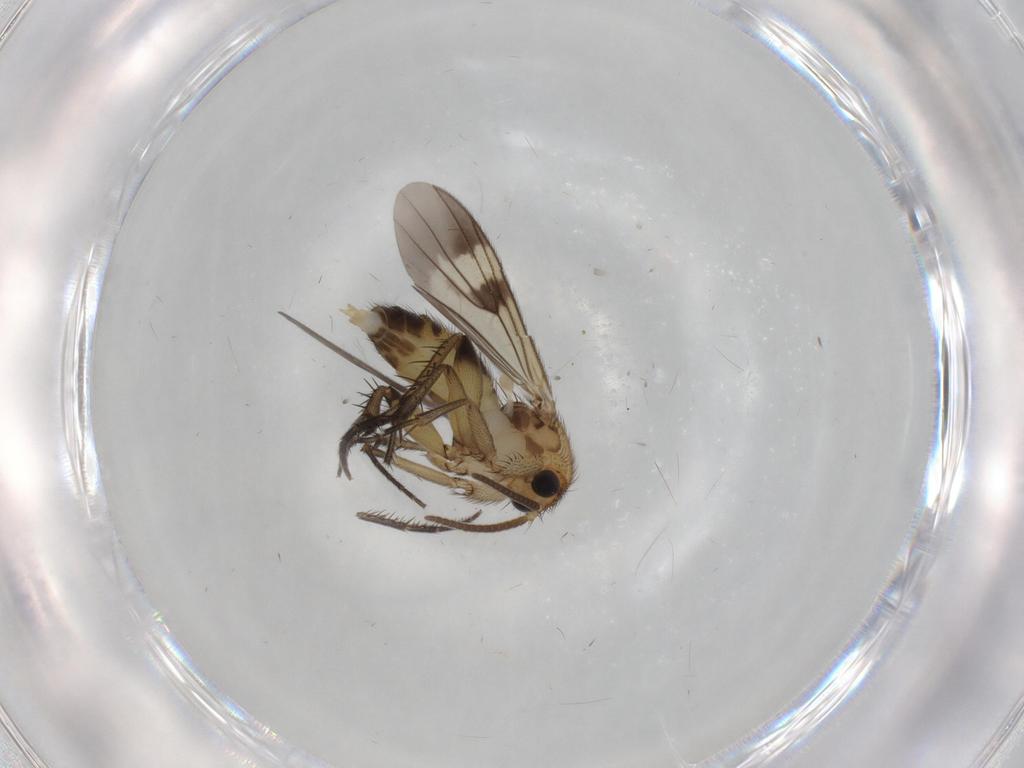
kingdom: Animalia
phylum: Arthropoda
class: Insecta
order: Diptera
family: Mycetophilidae
